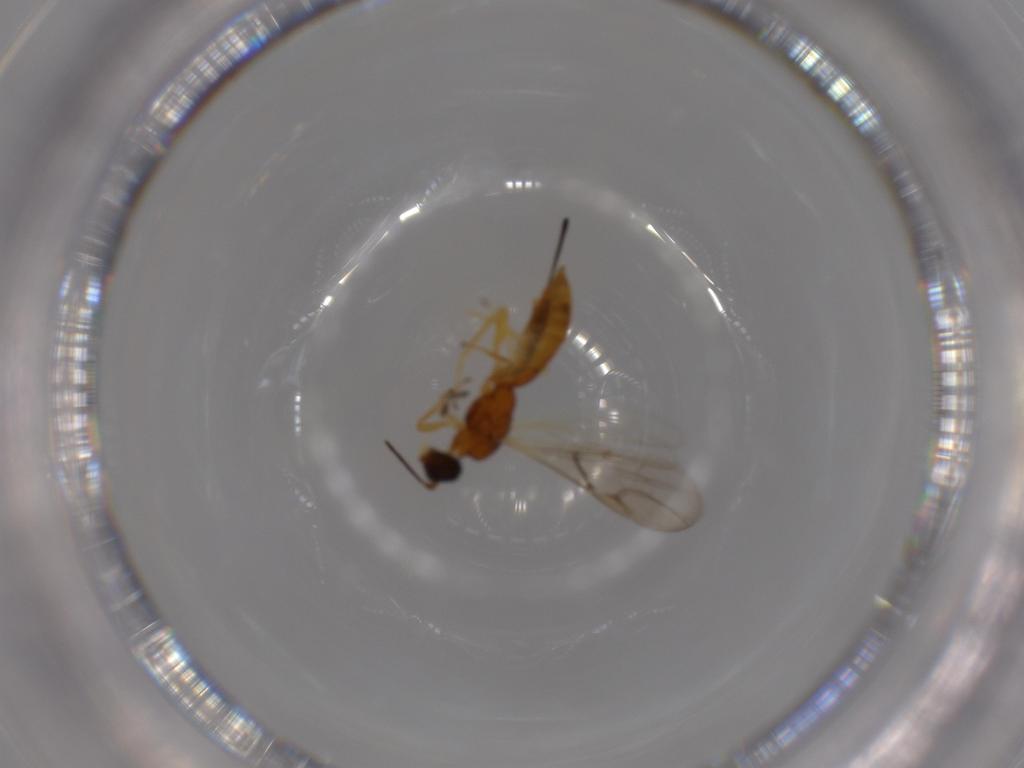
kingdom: Animalia
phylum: Arthropoda
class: Insecta
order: Hymenoptera
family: Braconidae
